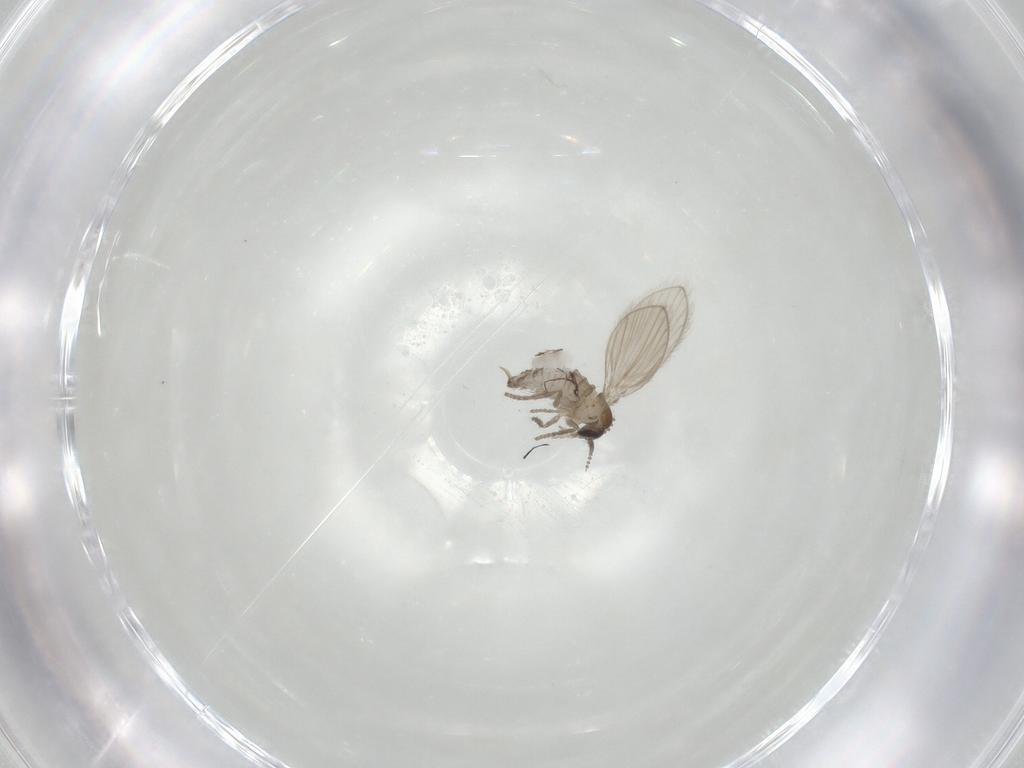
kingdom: Animalia
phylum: Arthropoda
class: Insecta
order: Diptera
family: Psychodidae
